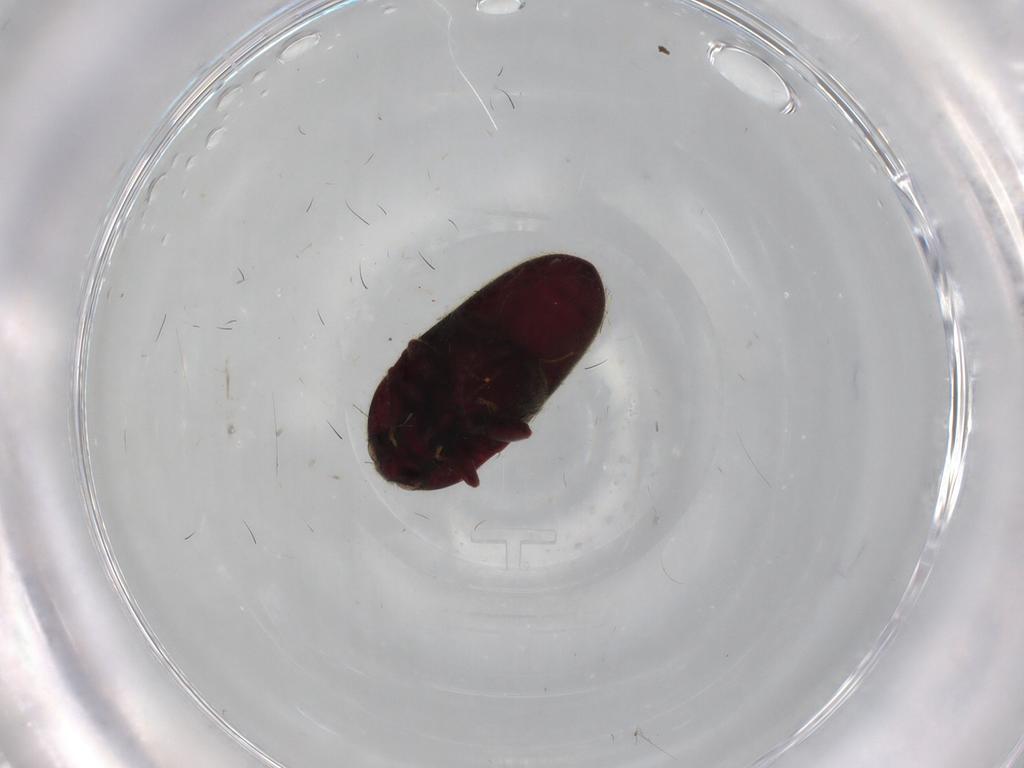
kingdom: Animalia
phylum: Arthropoda
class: Insecta
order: Coleoptera
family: Throscidae
